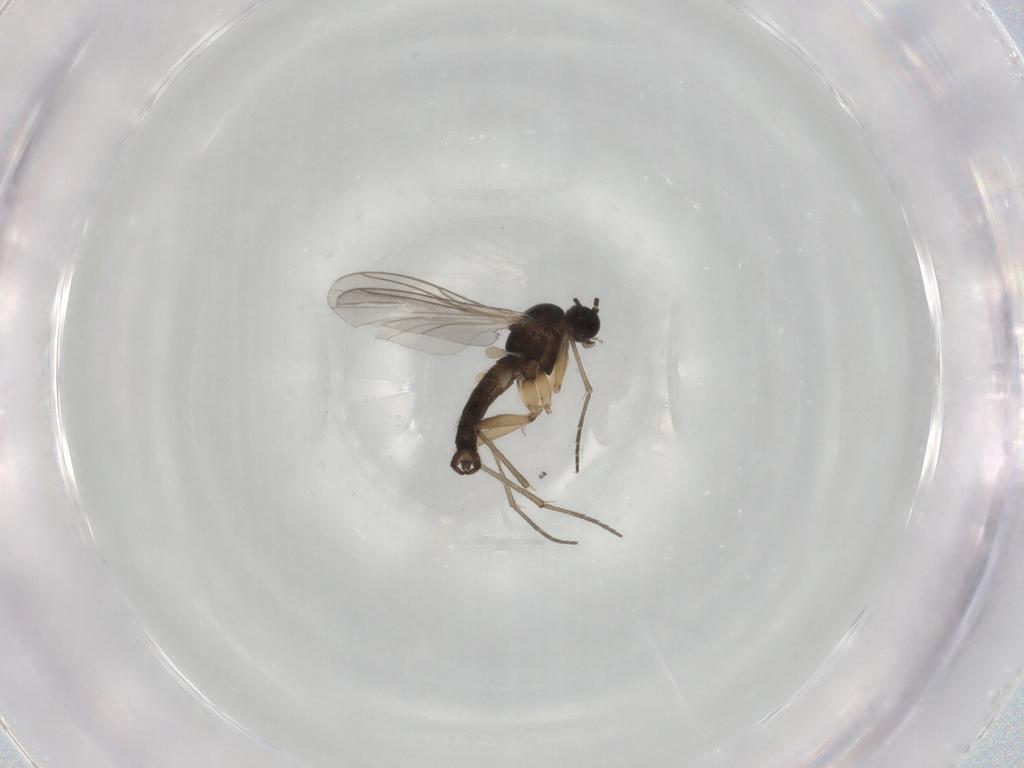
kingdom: Animalia
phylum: Arthropoda
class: Insecta
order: Diptera
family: Sciaridae
